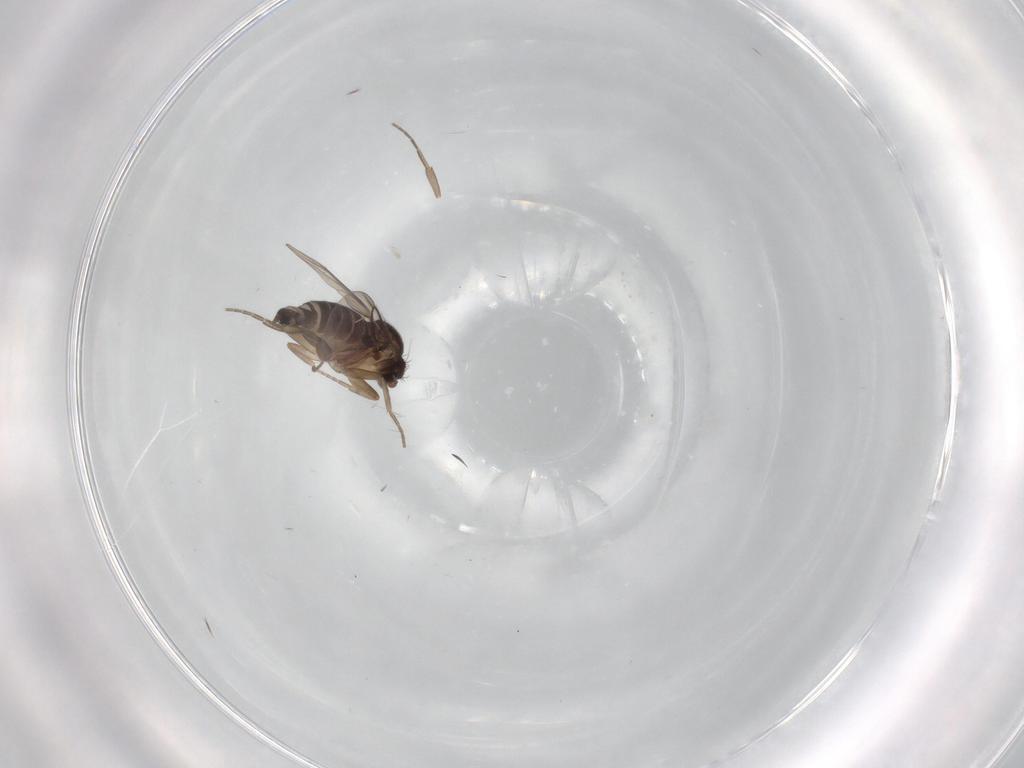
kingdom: Animalia
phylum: Arthropoda
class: Insecta
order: Diptera
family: Phoridae
